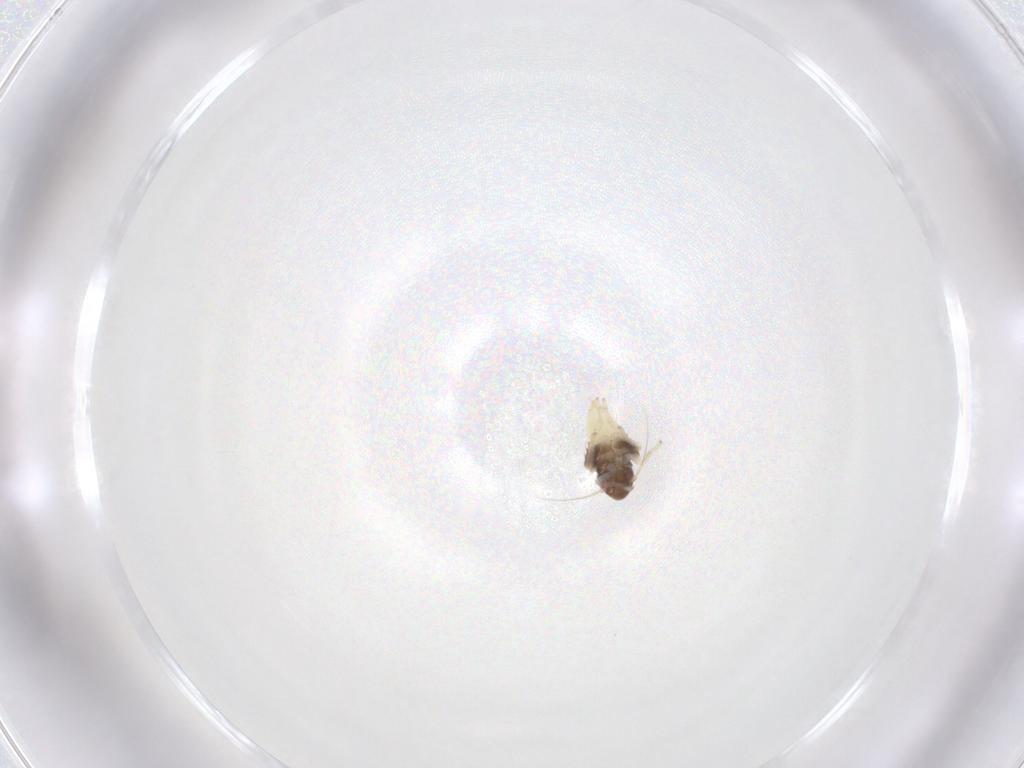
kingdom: Animalia
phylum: Arthropoda
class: Insecta
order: Hemiptera
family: Cicadellidae
